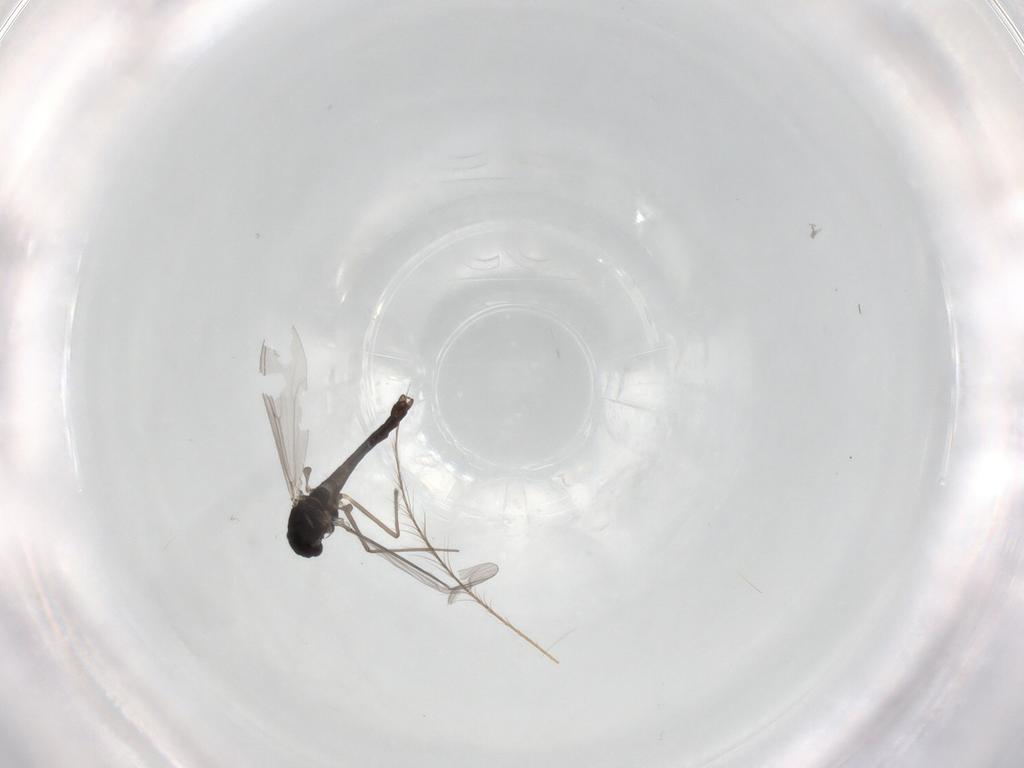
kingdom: Animalia
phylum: Arthropoda
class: Insecta
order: Diptera
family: Chironomidae
